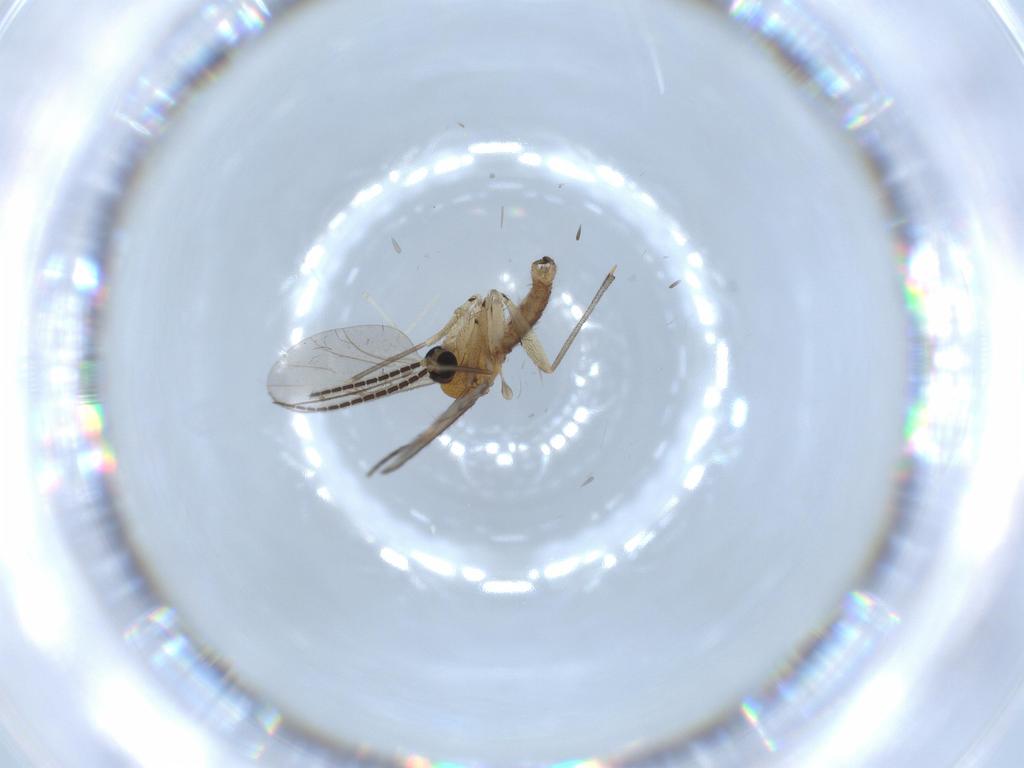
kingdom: Animalia
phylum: Arthropoda
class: Insecta
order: Diptera
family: Sciaridae
